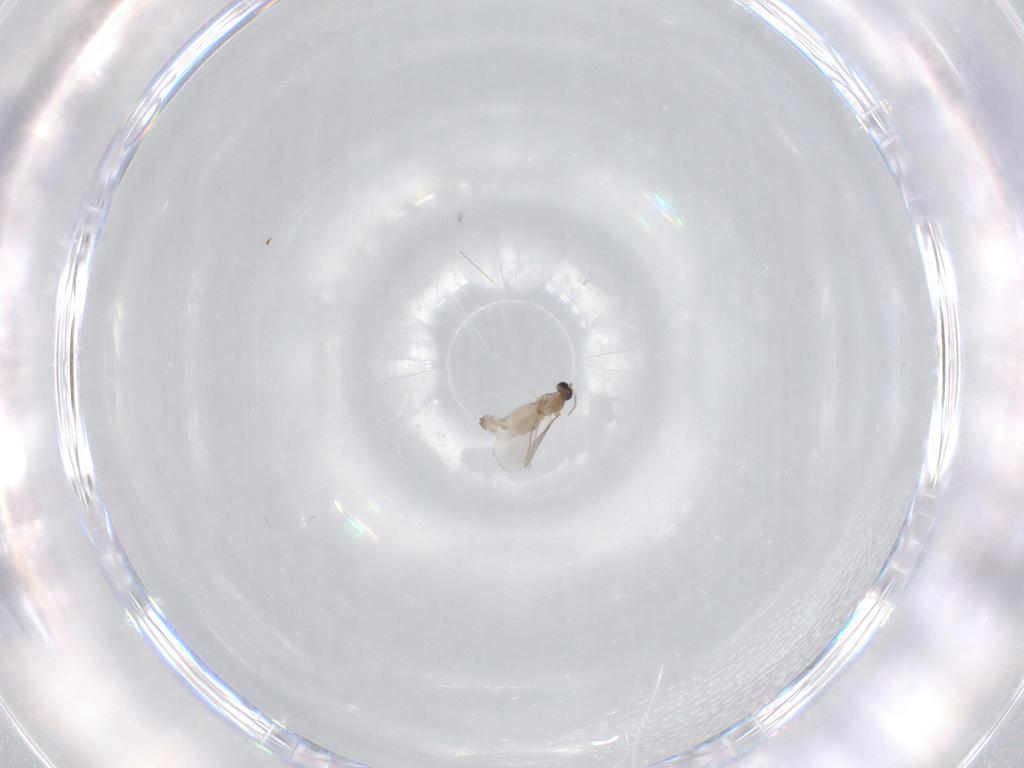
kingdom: Animalia
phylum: Arthropoda
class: Insecta
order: Diptera
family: Cecidomyiidae
